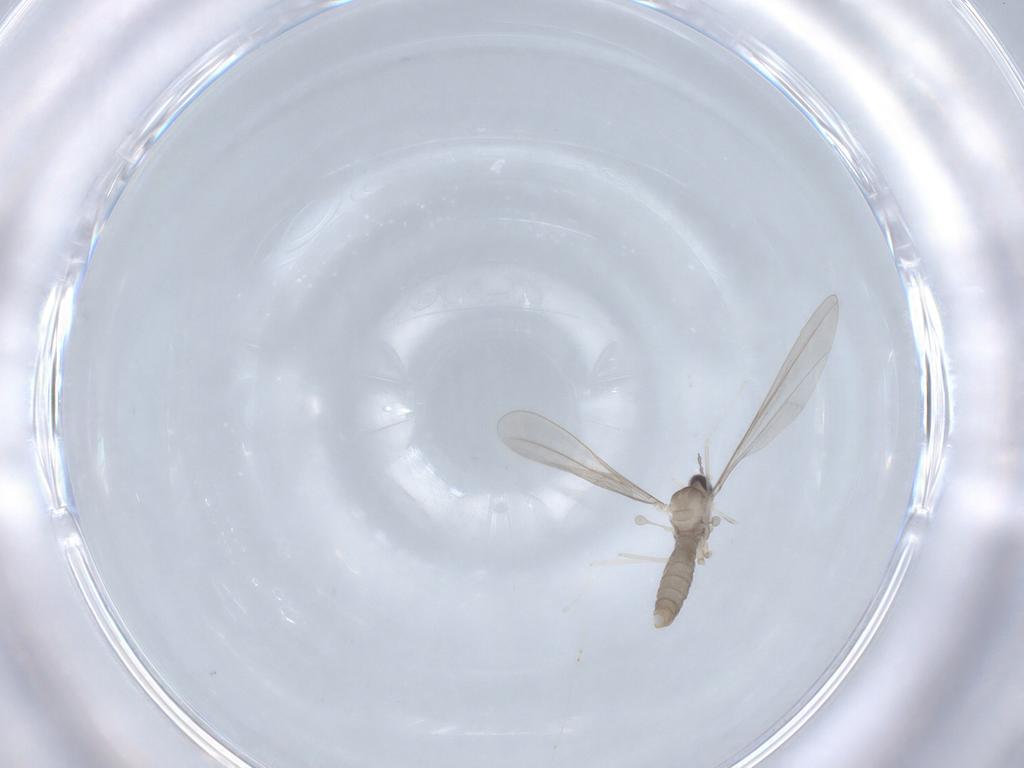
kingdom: Animalia
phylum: Arthropoda
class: Insecta
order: Diptera
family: Cecidomyiidae
